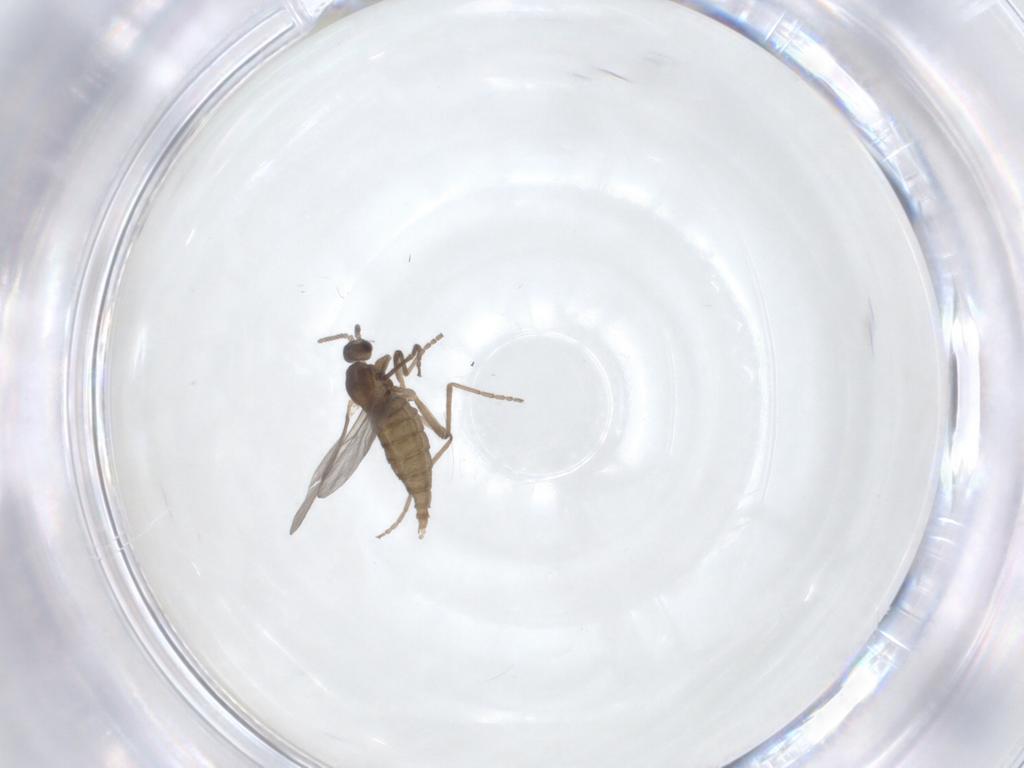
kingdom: Animalia
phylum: Arthropoda
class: Insecta
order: Diptera
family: Cecidomyiidae
